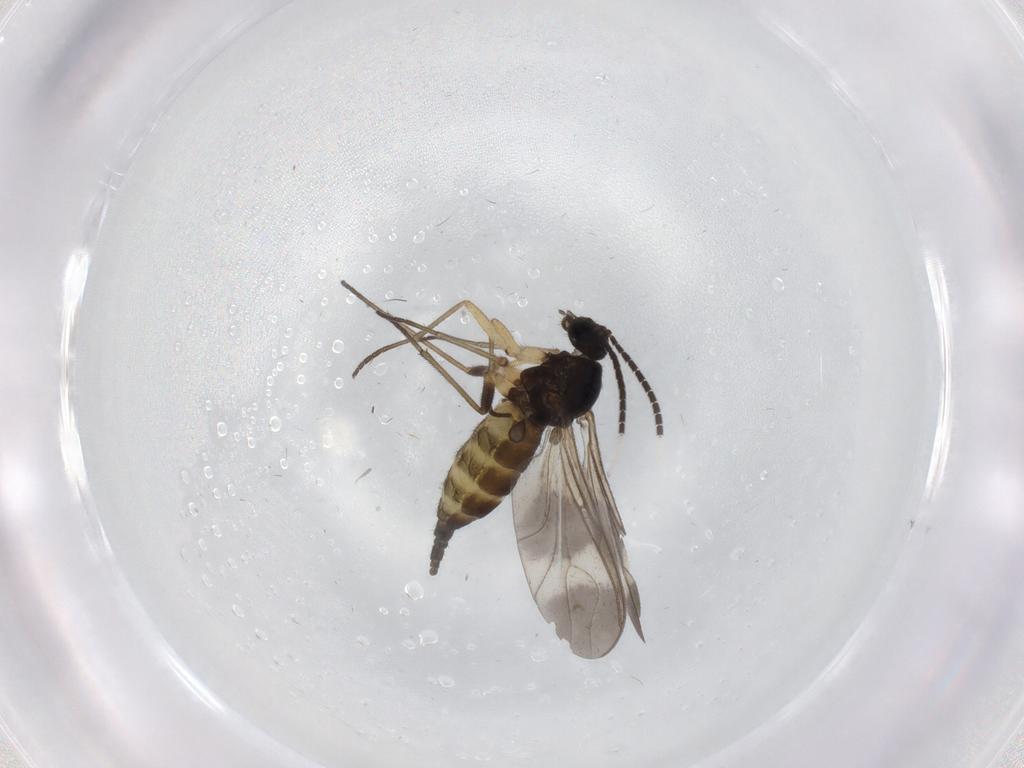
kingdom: Animalia
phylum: Arthropoda
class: Insecta
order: Diptera
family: Sciaridae
